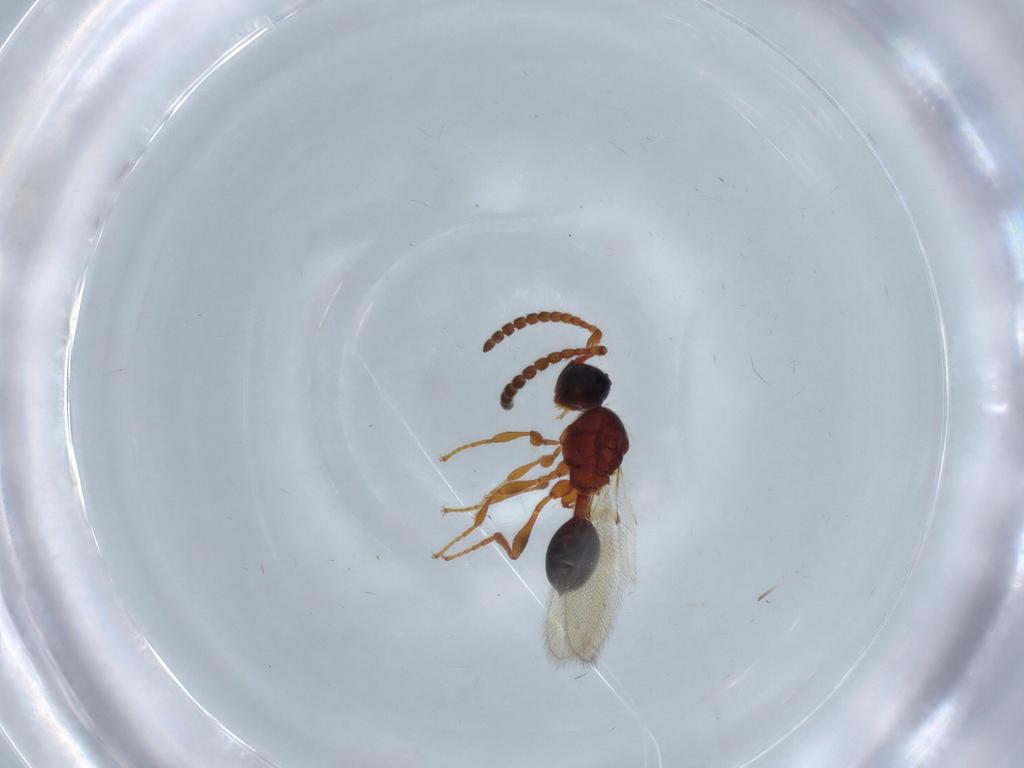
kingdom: Animalia
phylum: Arthropoda
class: Insecta
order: Hymenoptera
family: Diapriidae
